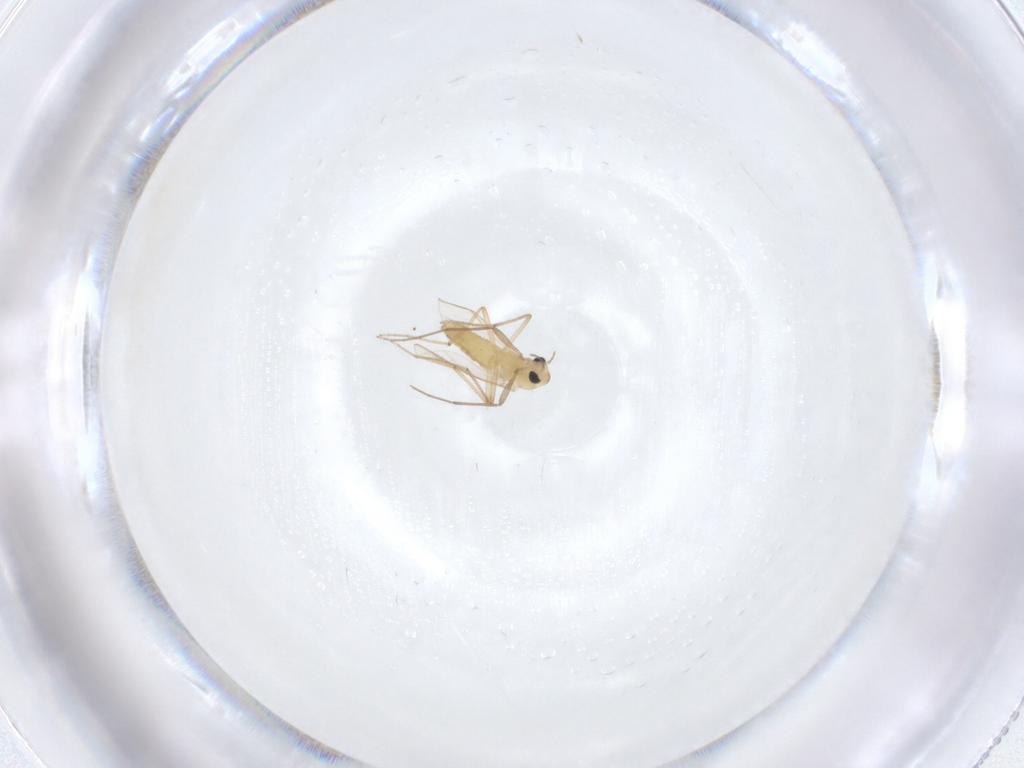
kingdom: Animalia
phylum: Arthropoda
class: Insecta
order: Diptera
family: Chironomidae
